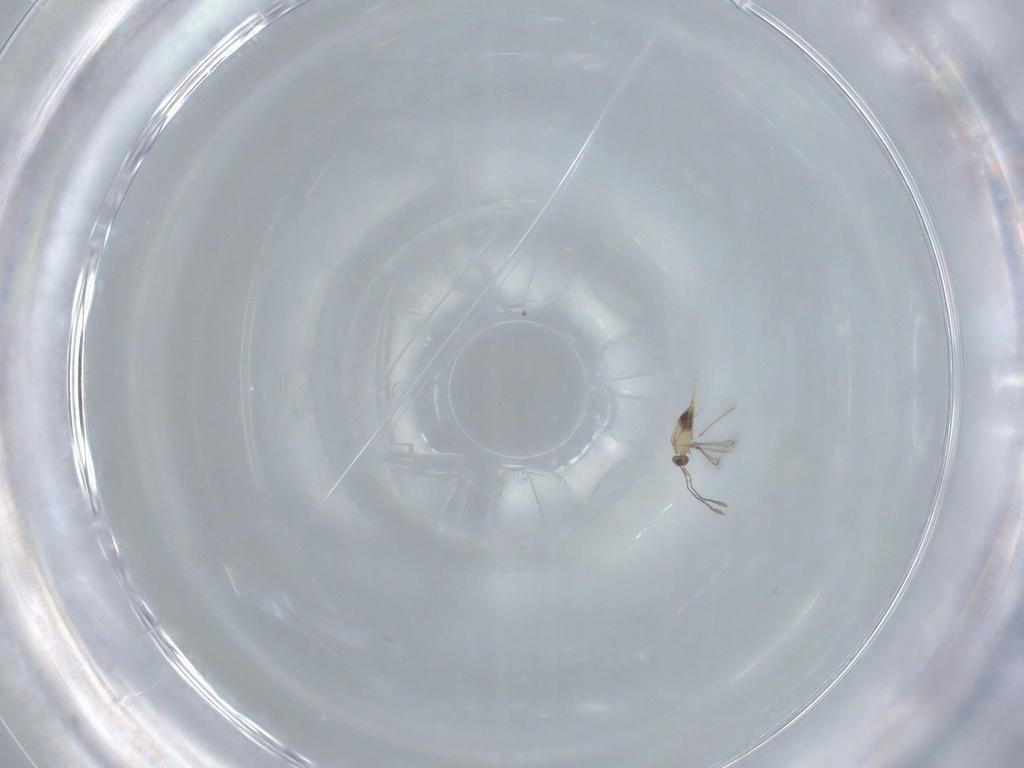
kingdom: Animalia
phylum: Arthropoda
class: Insecta
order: Hymenoptera
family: Mymaridae
